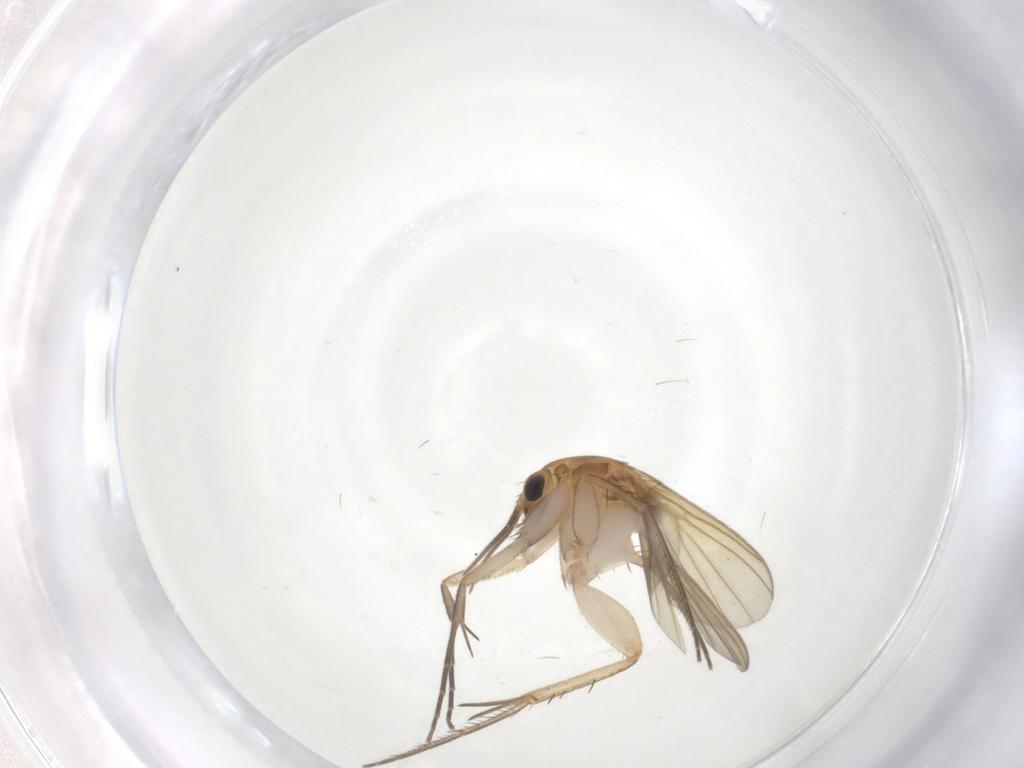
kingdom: Animalia
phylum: Arthropoda
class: Insecta
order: Diptera
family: Mycetophilidae
